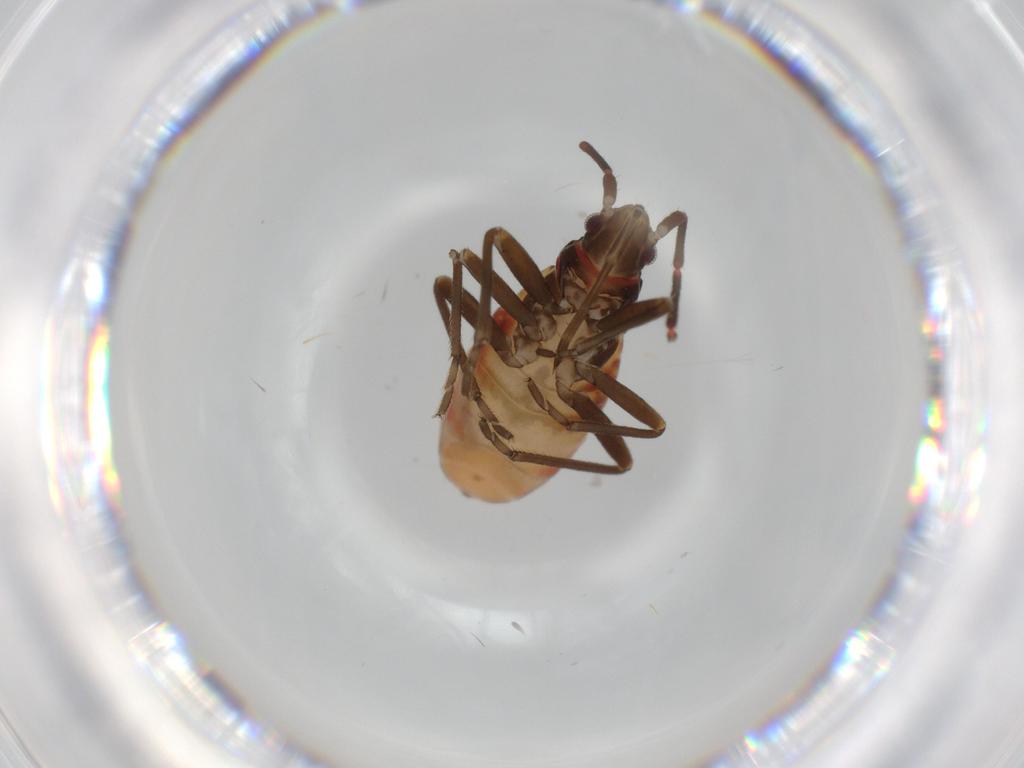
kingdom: Animalia
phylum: Arthropoda
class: Insecta
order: Hemiptera
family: Rhyparochromidae
